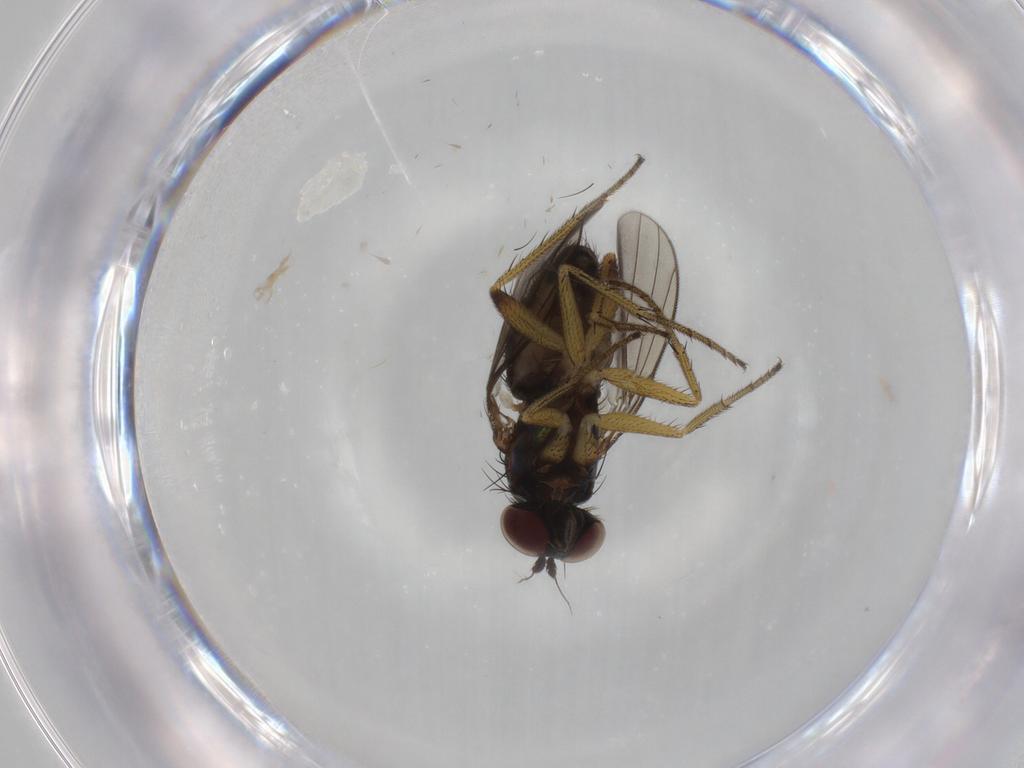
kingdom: Animalia
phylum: Arthropoda
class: Insecta
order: Diptera
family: Dolichopodidae
